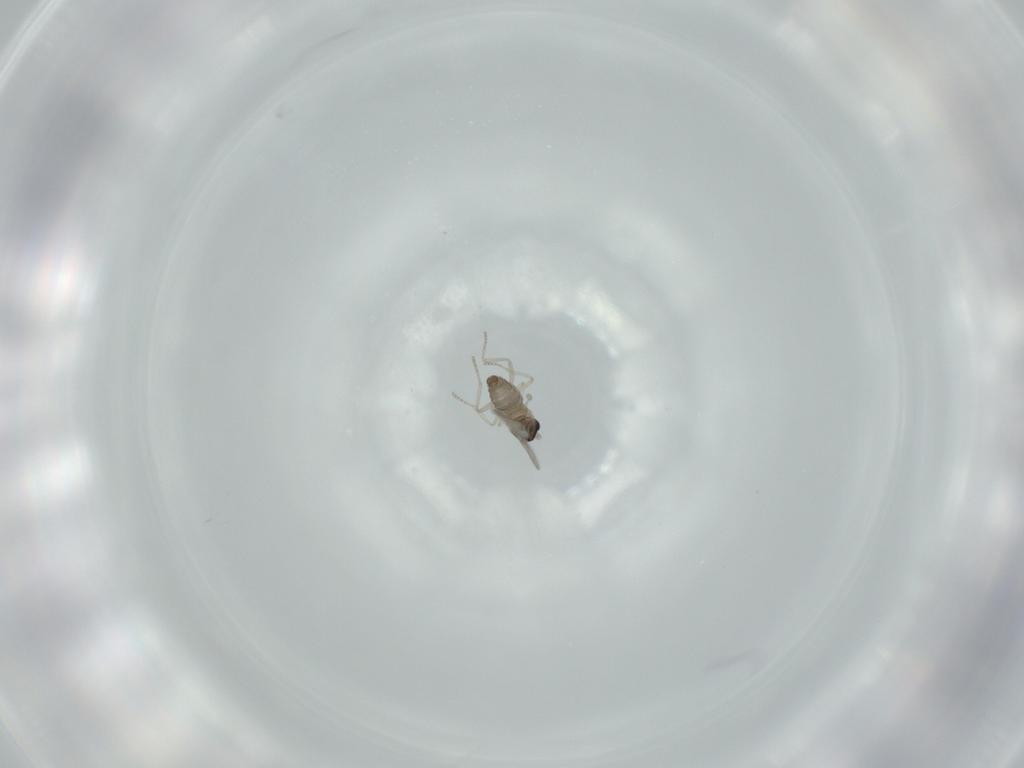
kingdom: Animalia
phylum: Arthropoda
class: Insecta
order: Diptera
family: Cecidomyiidae
